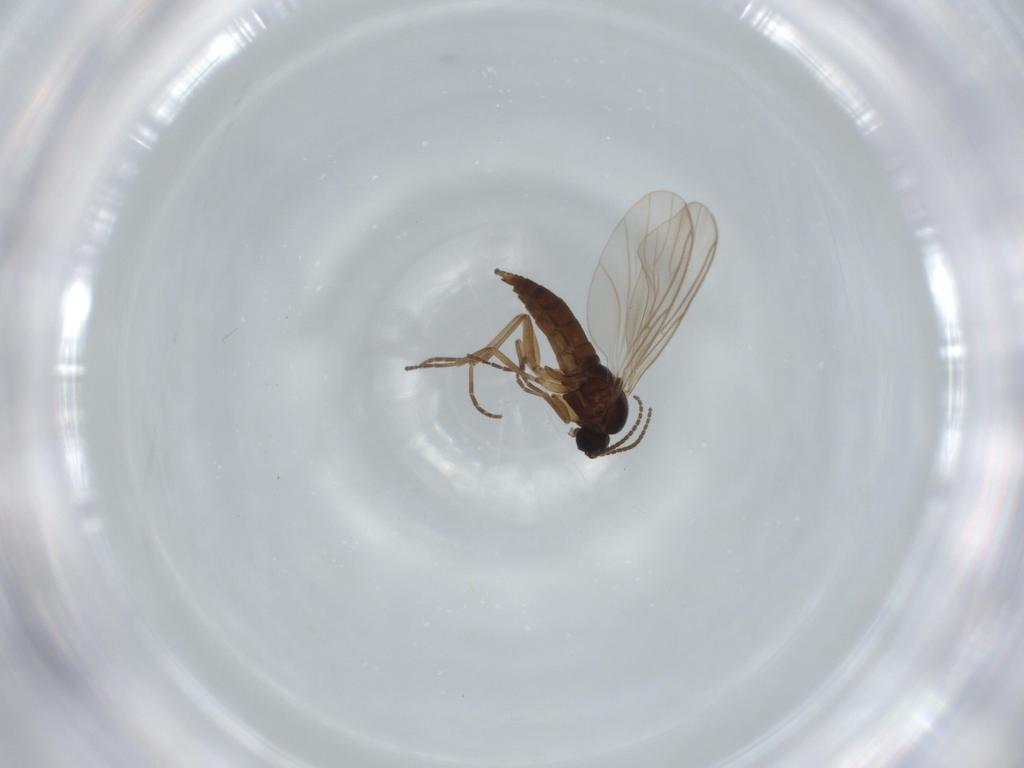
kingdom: Animalia
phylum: Arthropoda
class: Insecta
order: Diptera
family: Sciaridae
